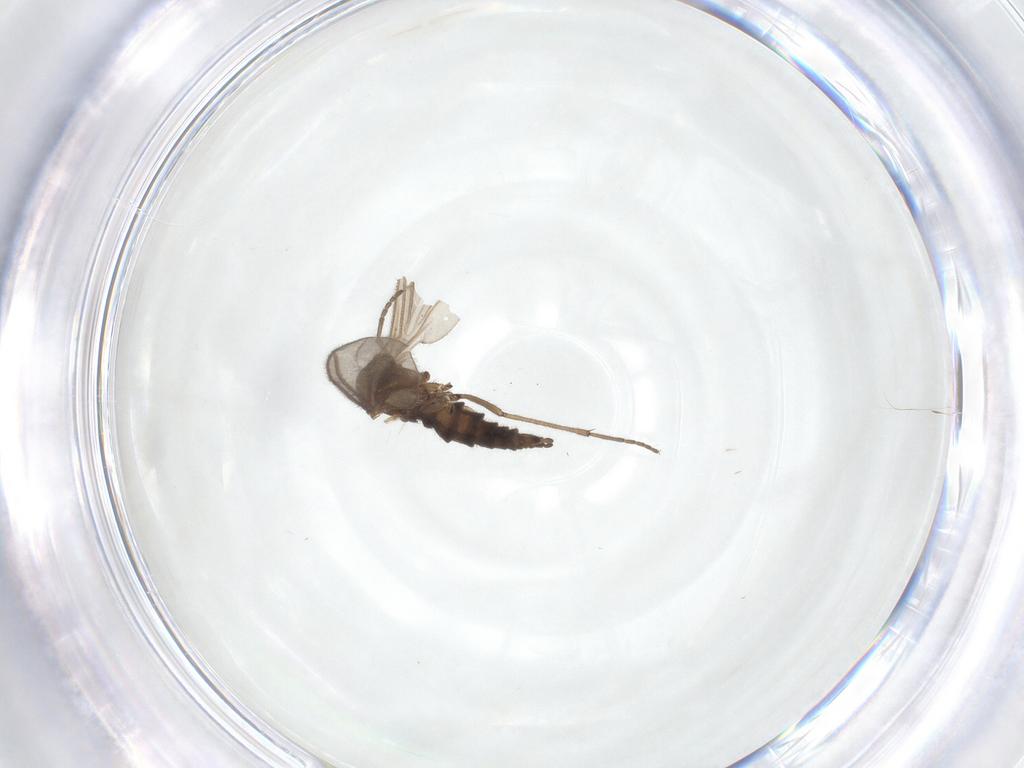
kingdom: Animalia
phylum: Arthropoda
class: Insecta
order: Diptera
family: Sciaridae
